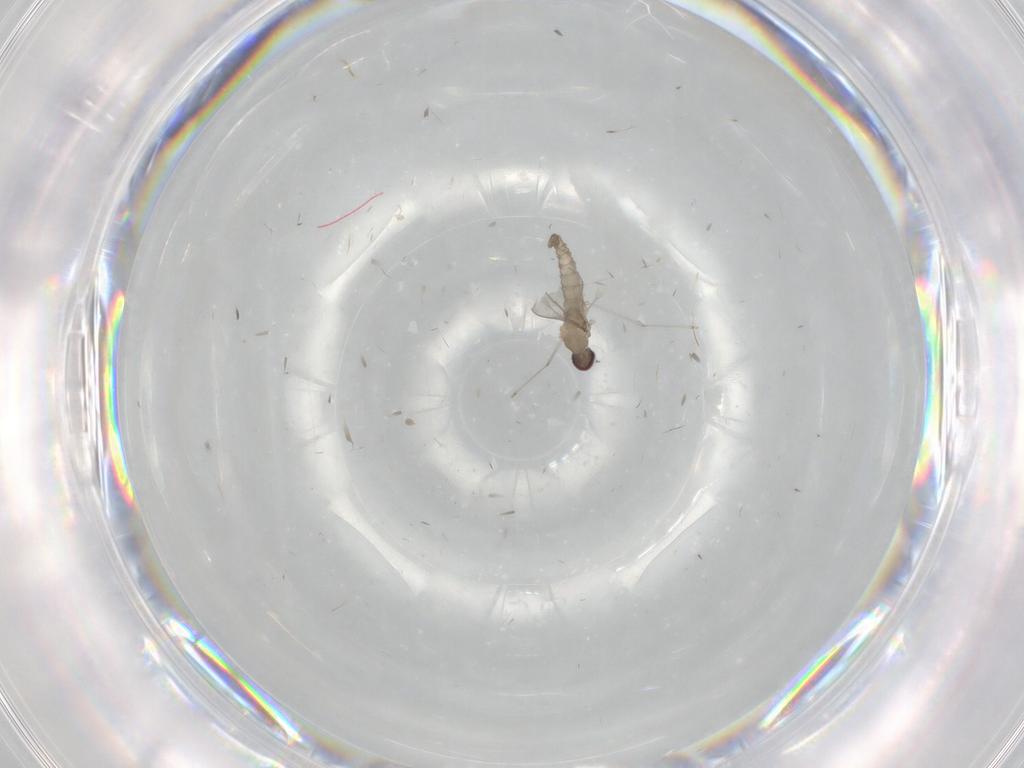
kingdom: Animalia
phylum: Arthropoda
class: Insecta
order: Diptera
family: Cecidomyiidae
